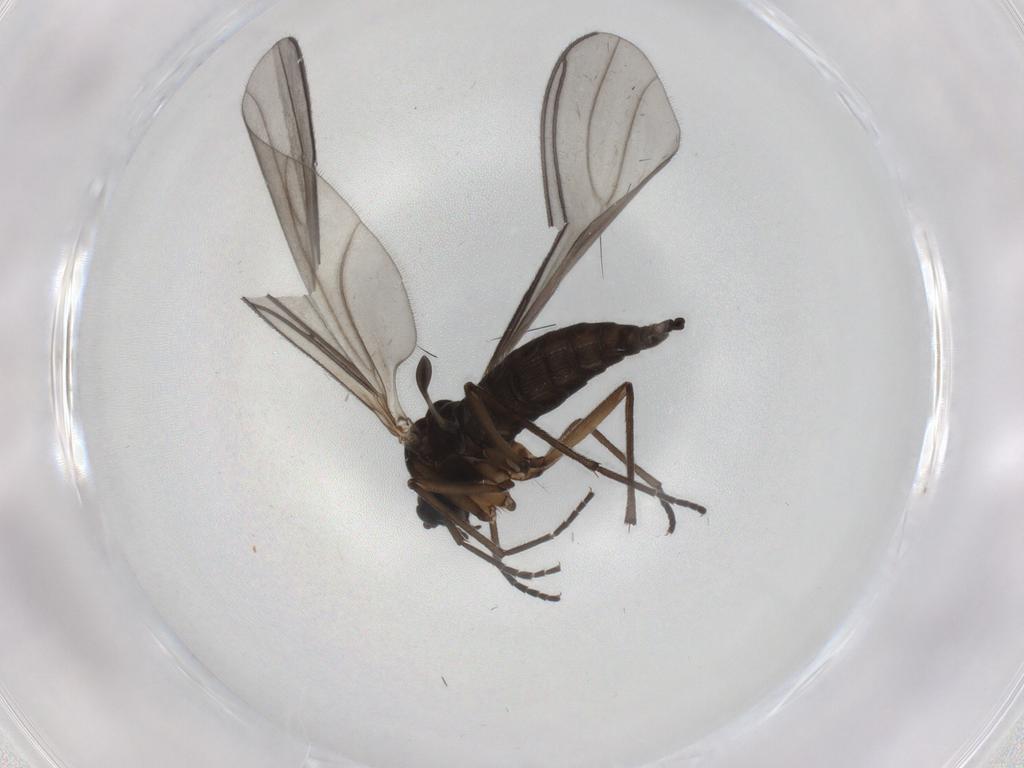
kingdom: Animalia
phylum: Arthropoda
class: Insecta
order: Diptera
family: Sciaridae
